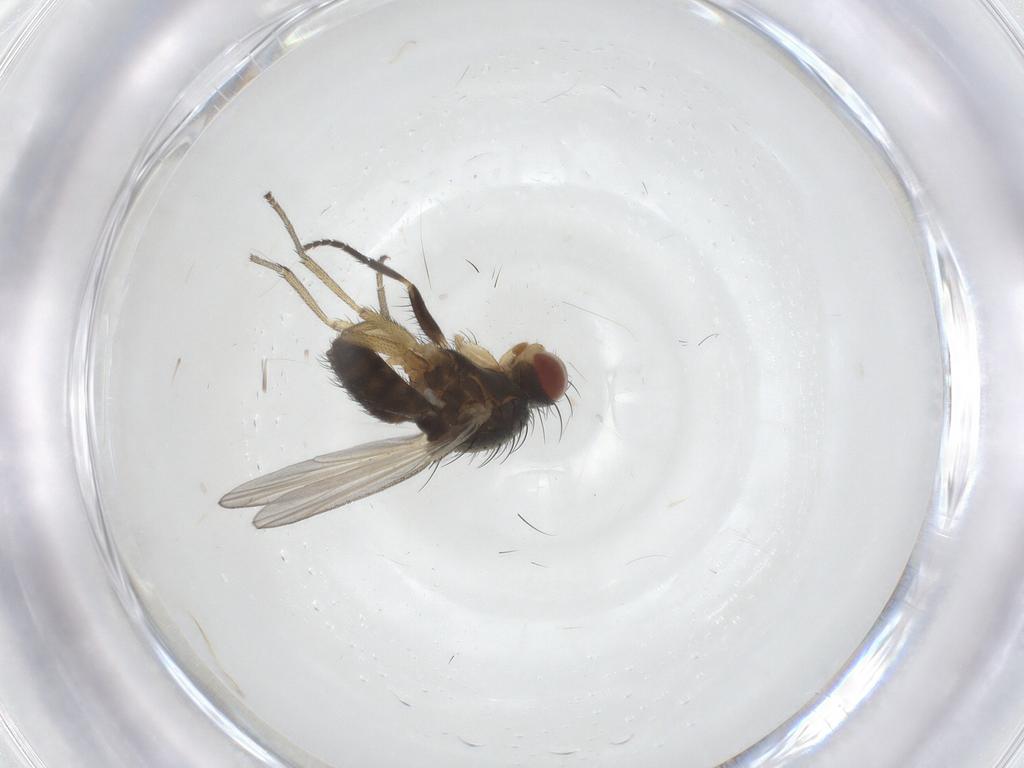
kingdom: Animalia
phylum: Arthropoda
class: Insecta
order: Diptera
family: Heleomyzidae
